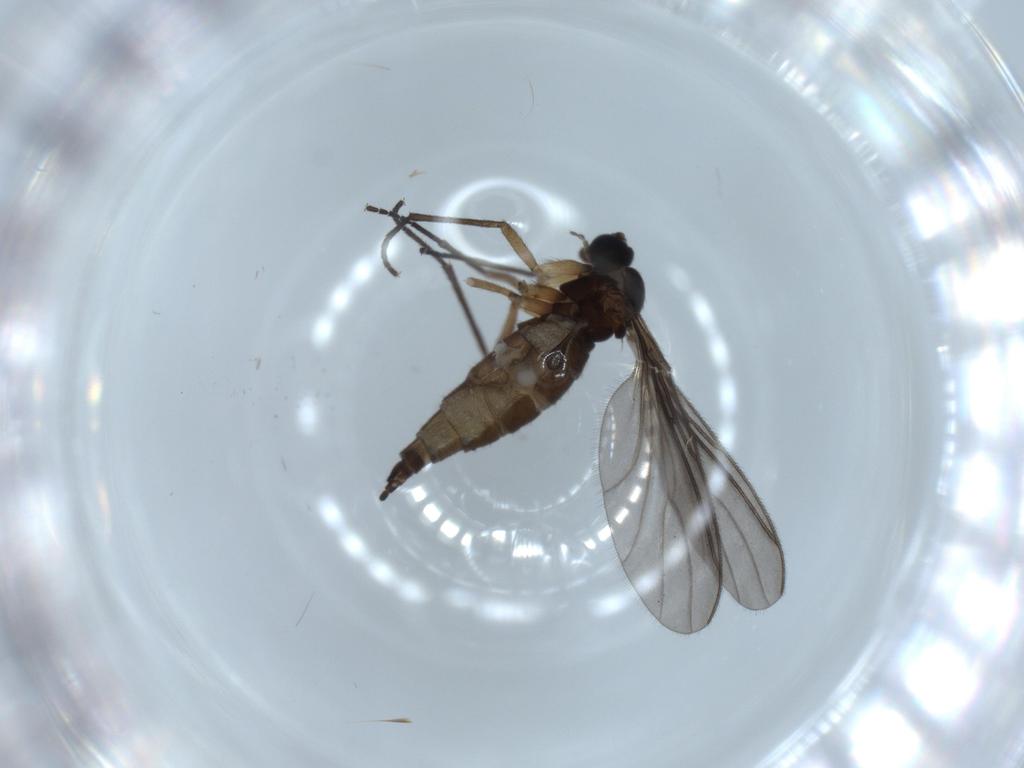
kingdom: Animalia
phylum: Arthropoda
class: Insecta
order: Diptera
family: Sciaridae
